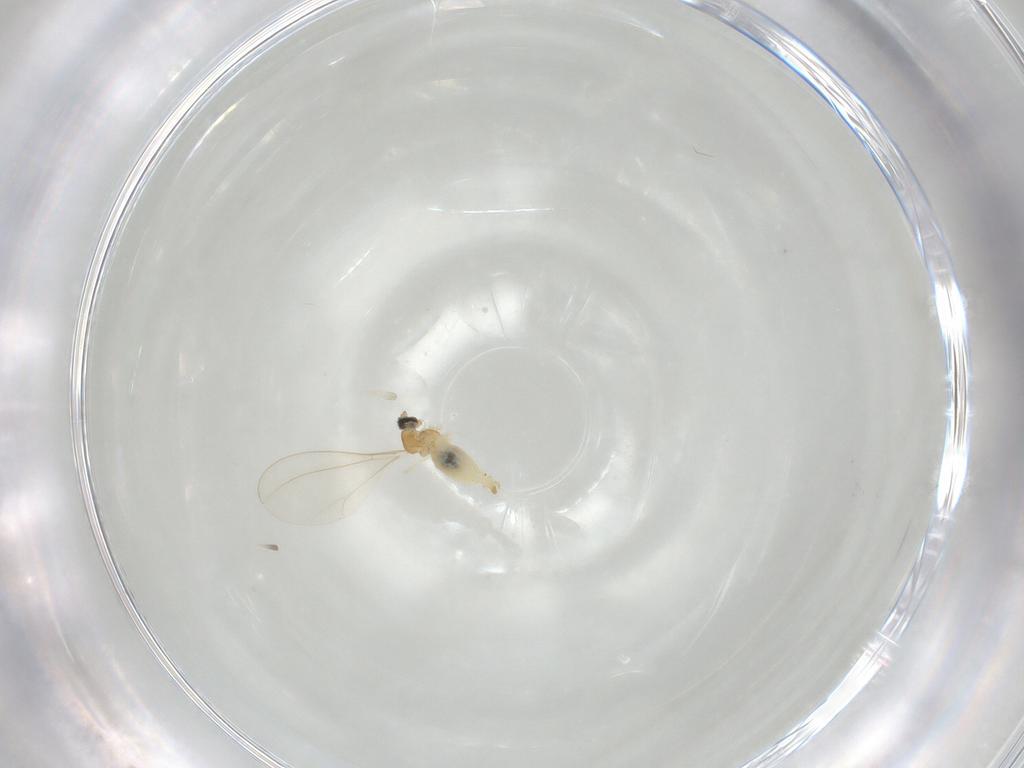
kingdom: Animalia
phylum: Arthropoda
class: Insecta
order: Diptera
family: Cecidomyiidae
